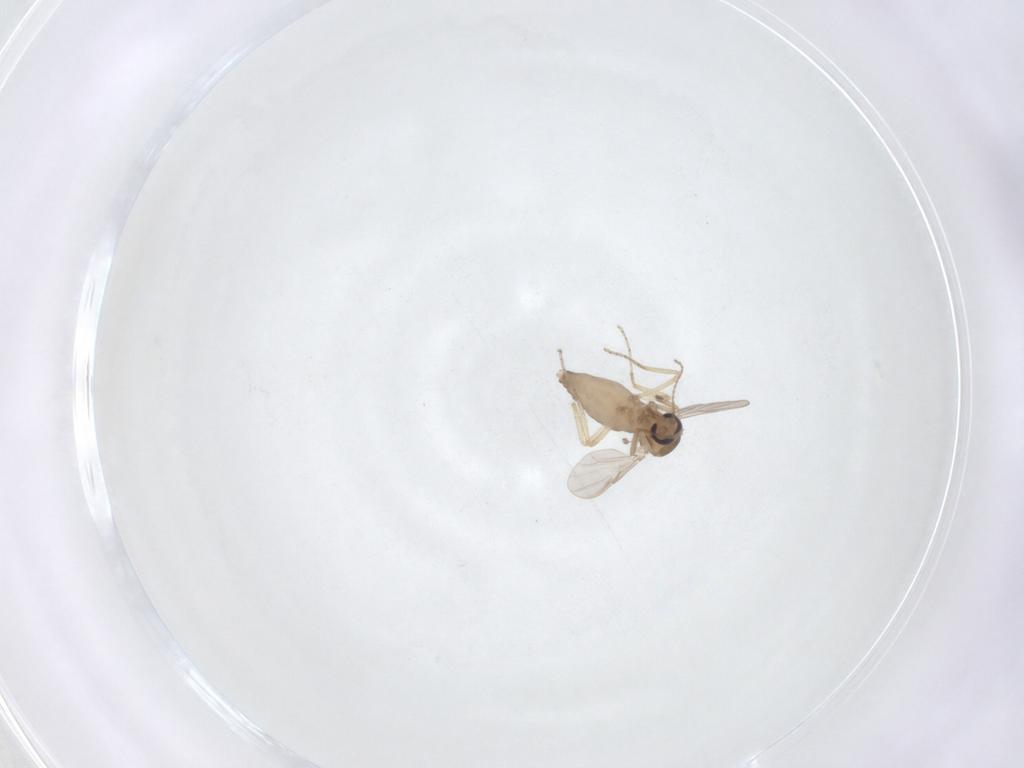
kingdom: Animalia
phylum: Arthropoda
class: Insecta
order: Diptera
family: Ceratopogonidae
